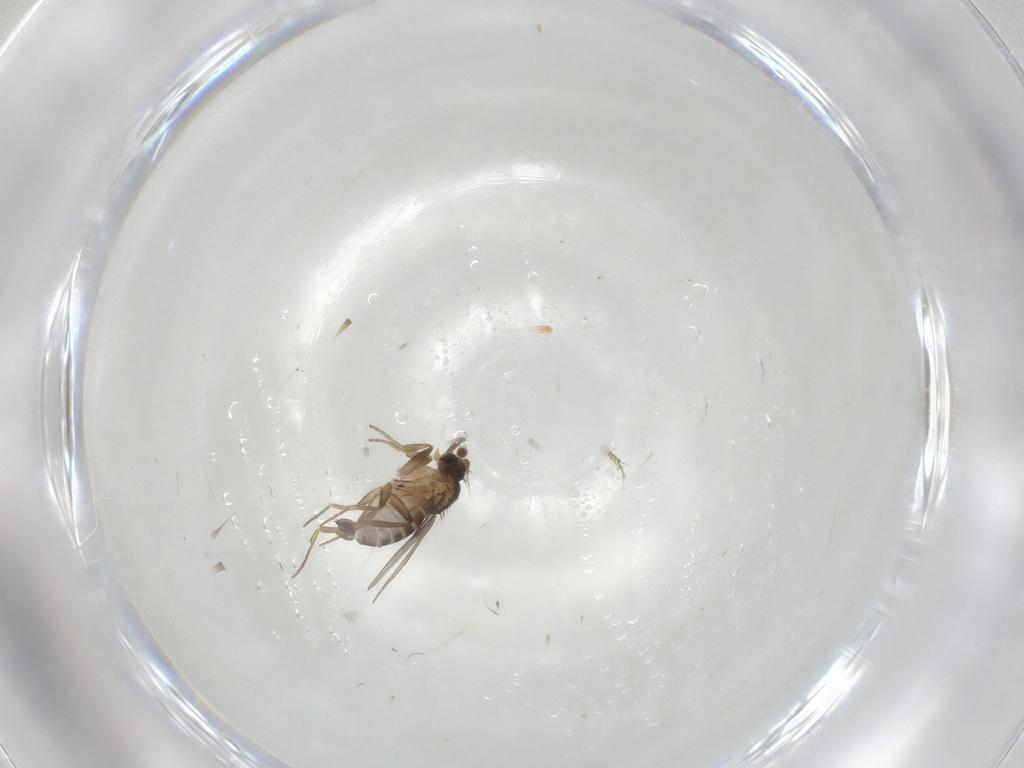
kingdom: Animalia
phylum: Arthropoda
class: Insecta
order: Diptera
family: Phoridae
